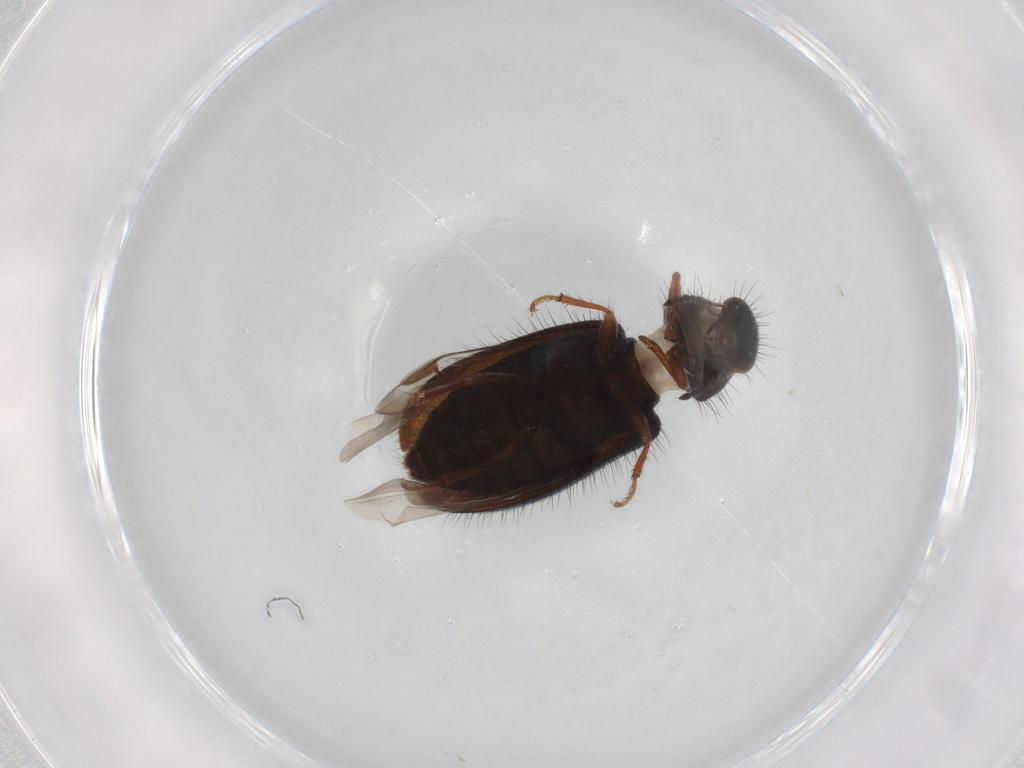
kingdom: Animalia
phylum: Arthropoda
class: Insecta
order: Coleoptera
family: Melyridae
